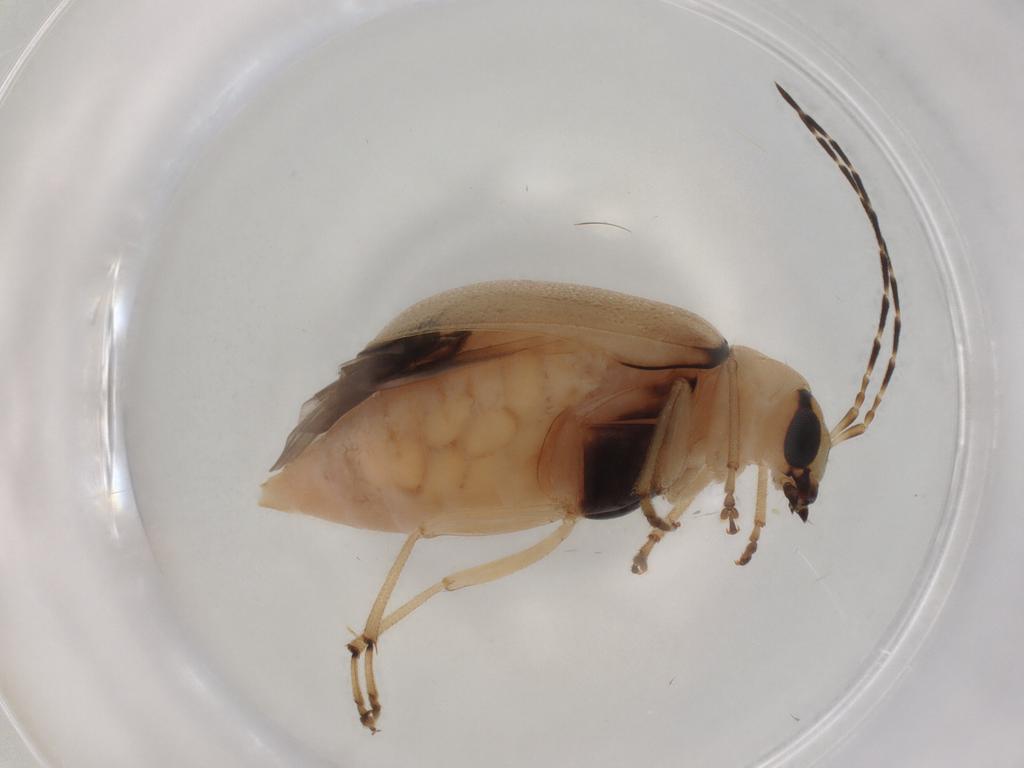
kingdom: Animalia
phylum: Arthropoda
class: Insecta
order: Coleoptera
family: Chrysomelidae
